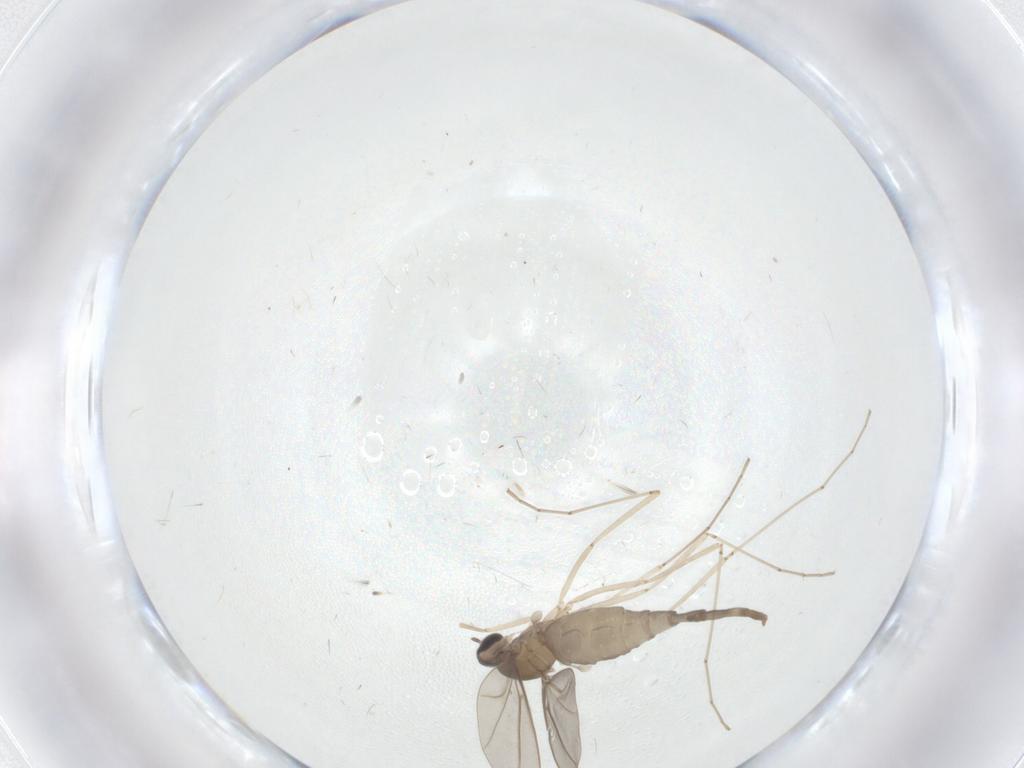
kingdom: Animalia
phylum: Arthropoda
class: Insecta
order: Diptera
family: Cecidomyiidae
